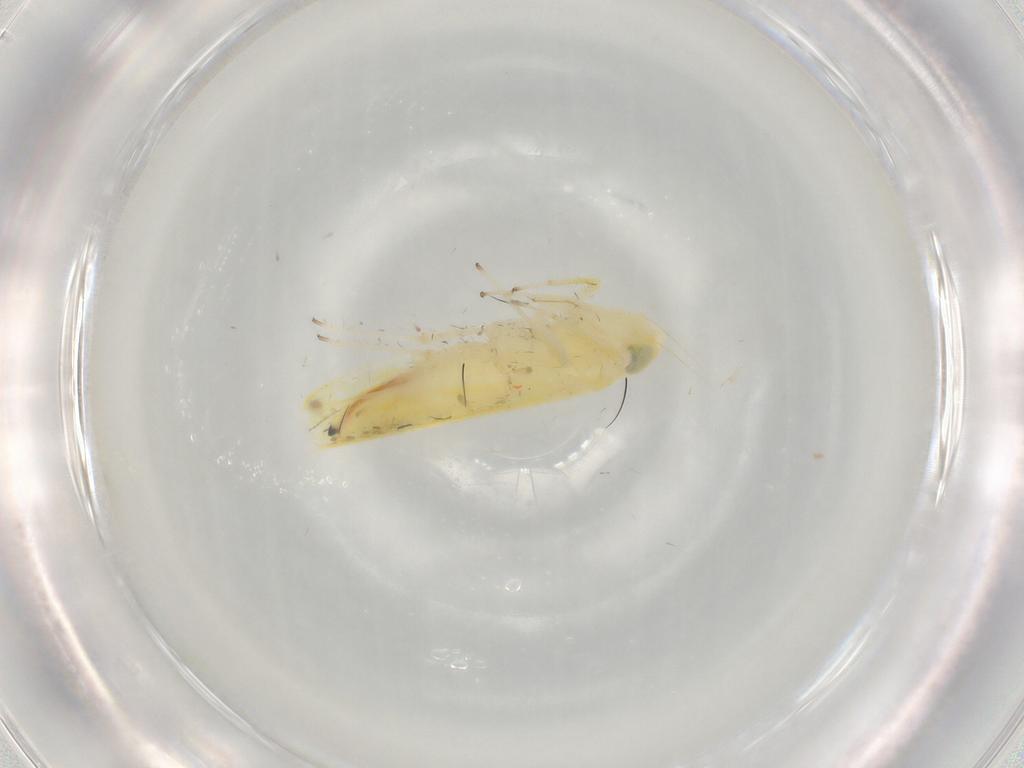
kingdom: Animalia
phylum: Arthropoda
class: Insecta
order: Hemiptera
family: Cicadellidae
